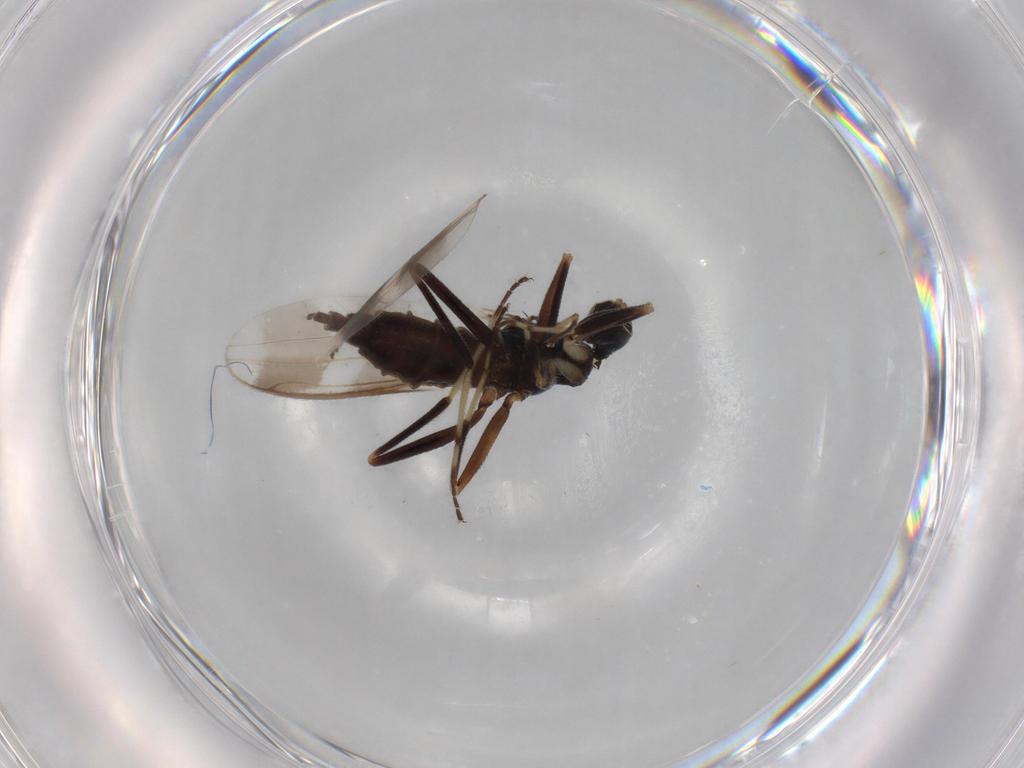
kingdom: Animalia
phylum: Arthropoda
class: Insecta
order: Diptera
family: Hybotidae
